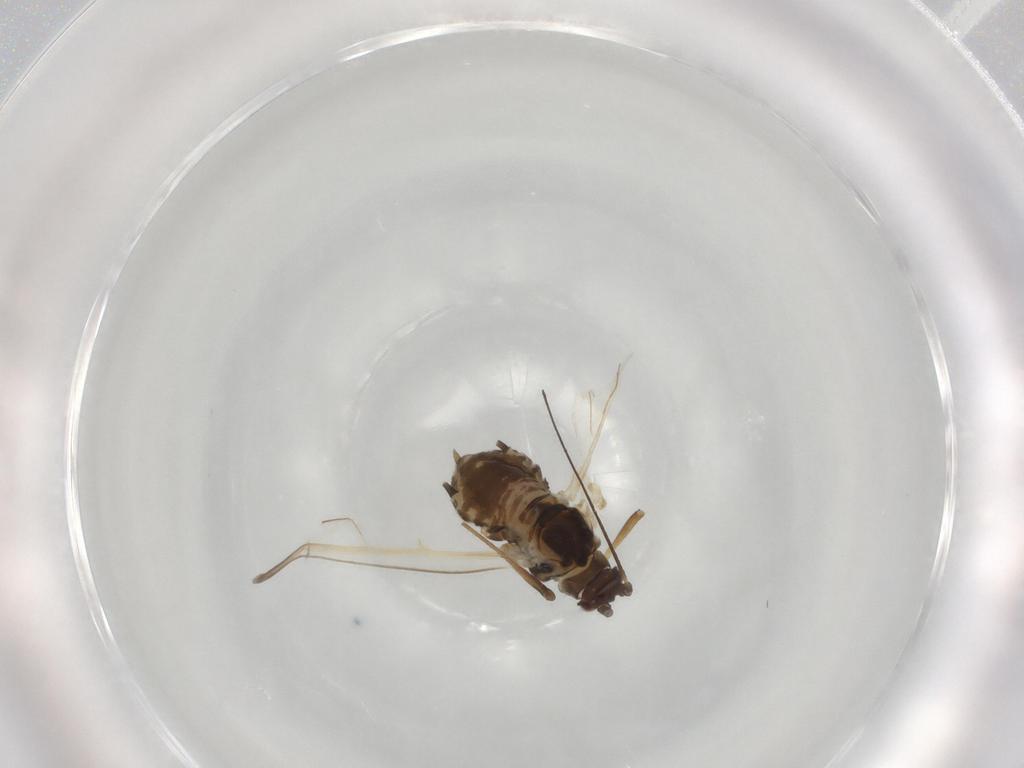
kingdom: Animalia
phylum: Arthropoda
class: Insecta
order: Hemiptera
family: Aphididae
